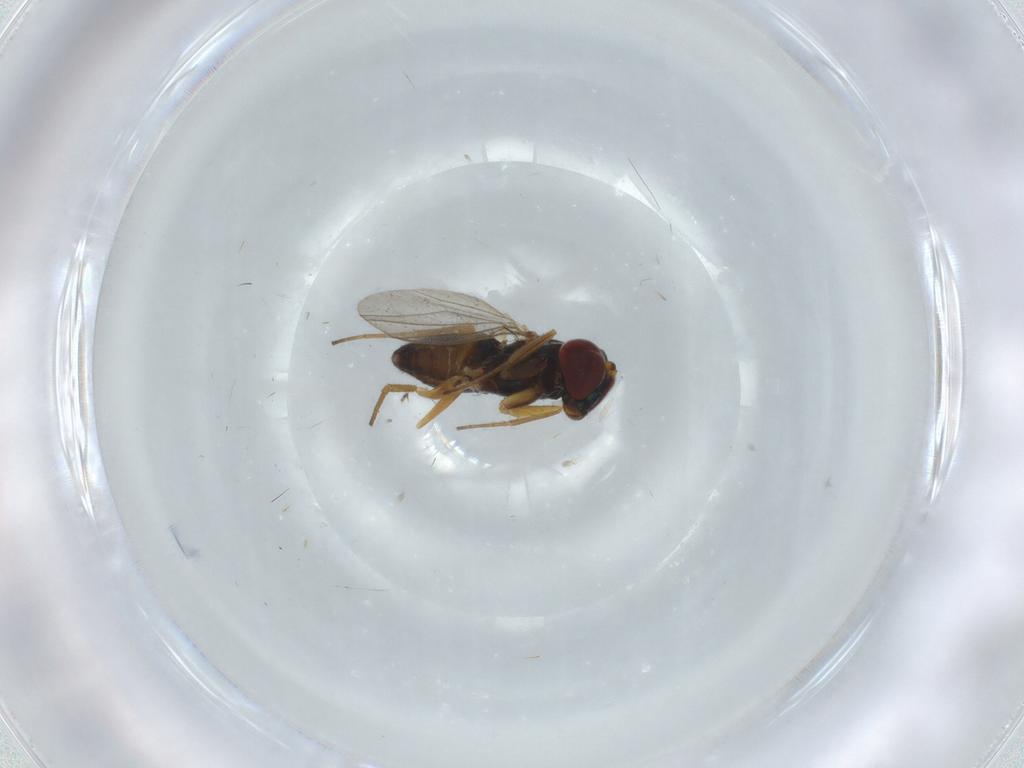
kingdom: Animalia
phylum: Arthropoda
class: Insecta
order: Diptera
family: Dolichopodidae
